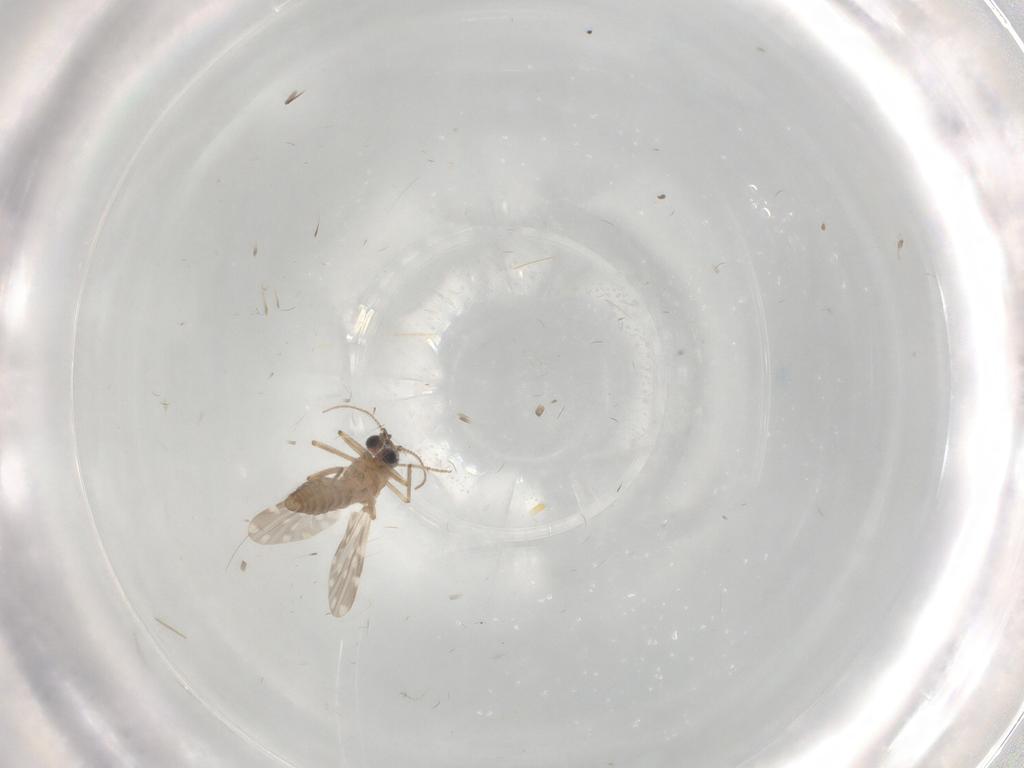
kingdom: Animalia
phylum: Arthropoda
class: Insecta
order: Diptera
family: Ceratopogonidae
